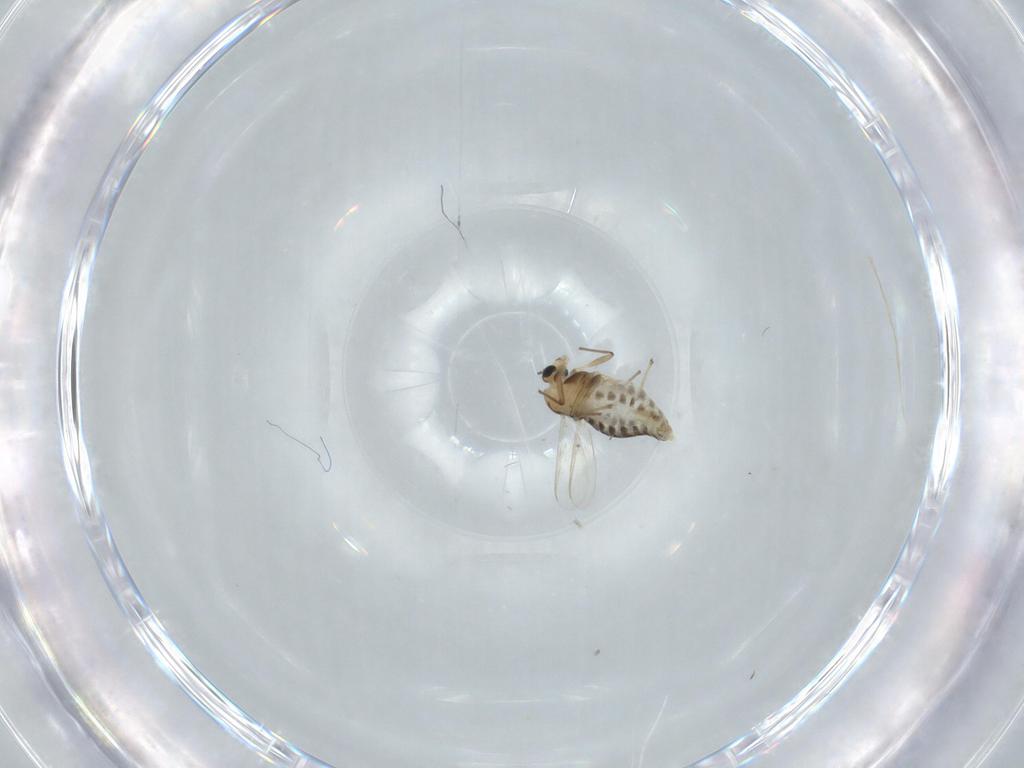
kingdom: Animalia
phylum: Arthropoda
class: Insecta
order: Diptera
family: Chironomidae
